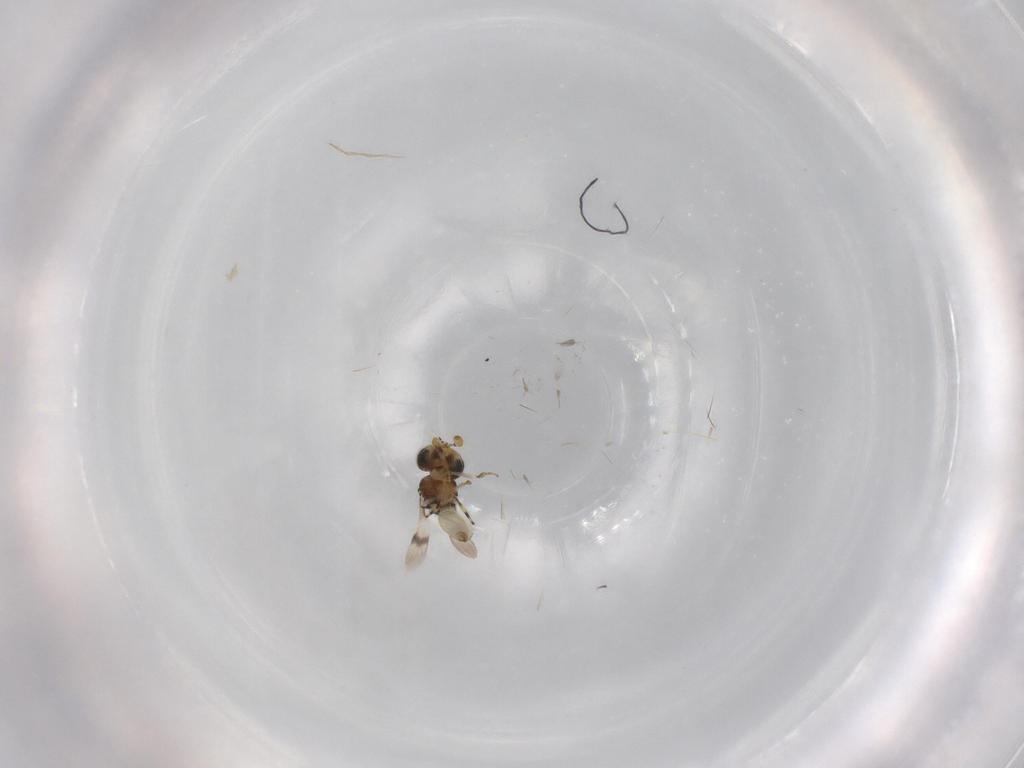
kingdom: Animalia
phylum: Arthropoda
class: Insecta
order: Hymenoptera
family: Scelionidae
